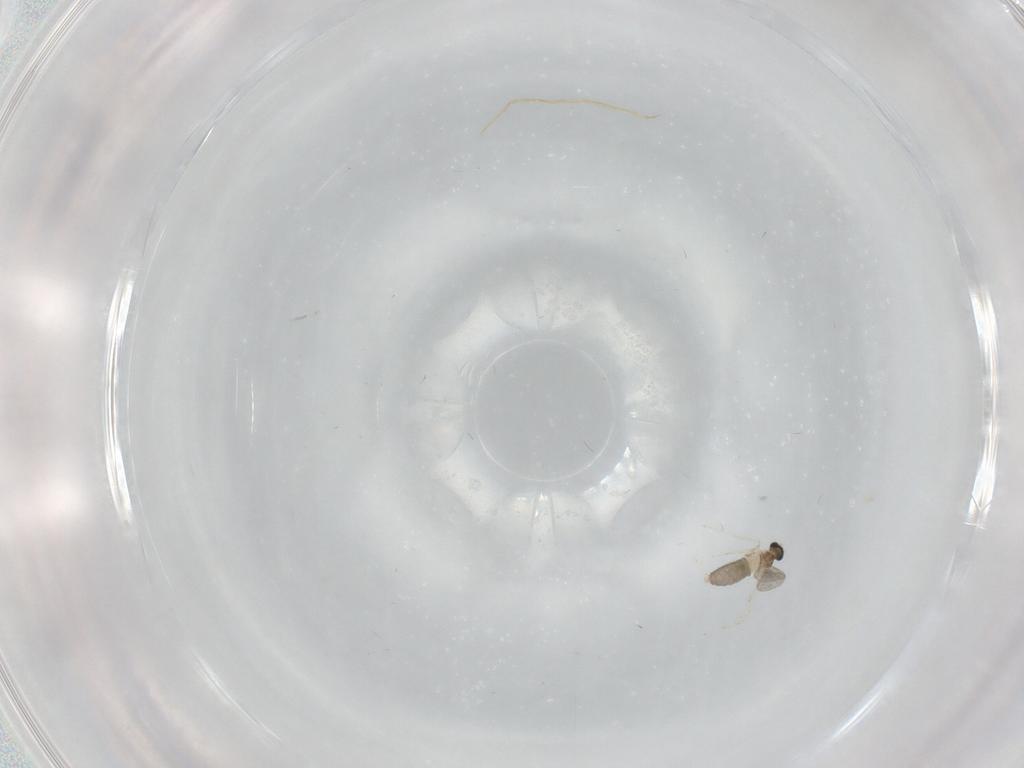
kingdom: Animalia
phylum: Arthropoda
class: Insecta
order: Diptera
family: Cecidomyiidae
